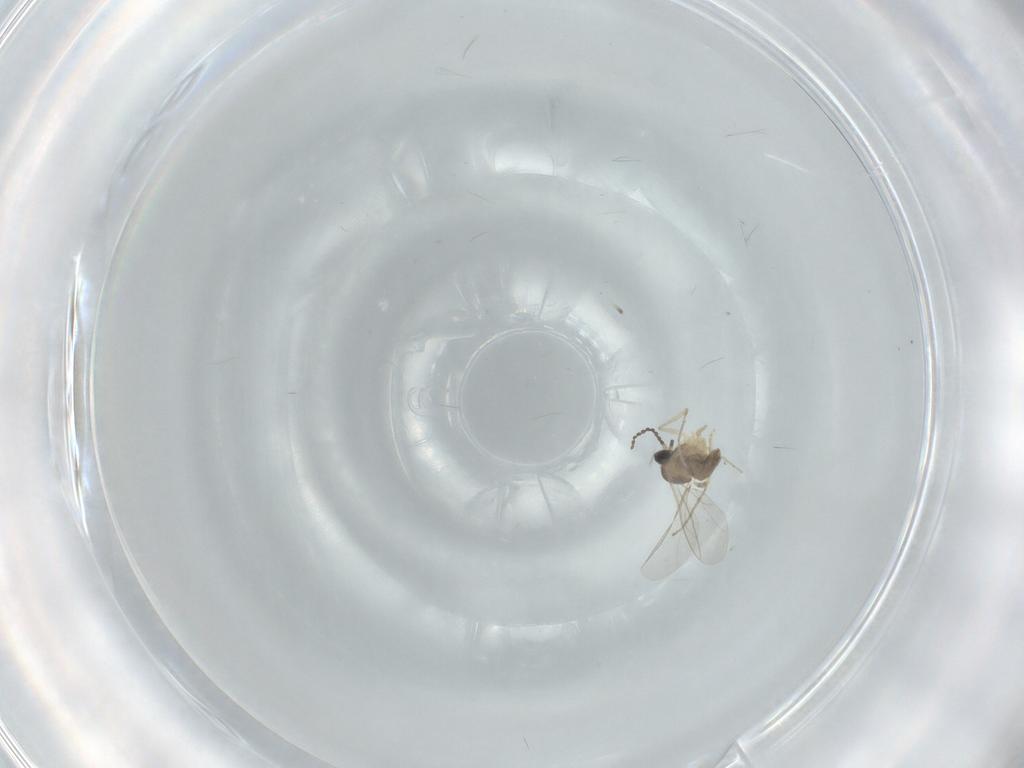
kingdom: Animalia
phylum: Arthropoda
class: Insecta
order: Diptera
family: Cecidomyiidae
